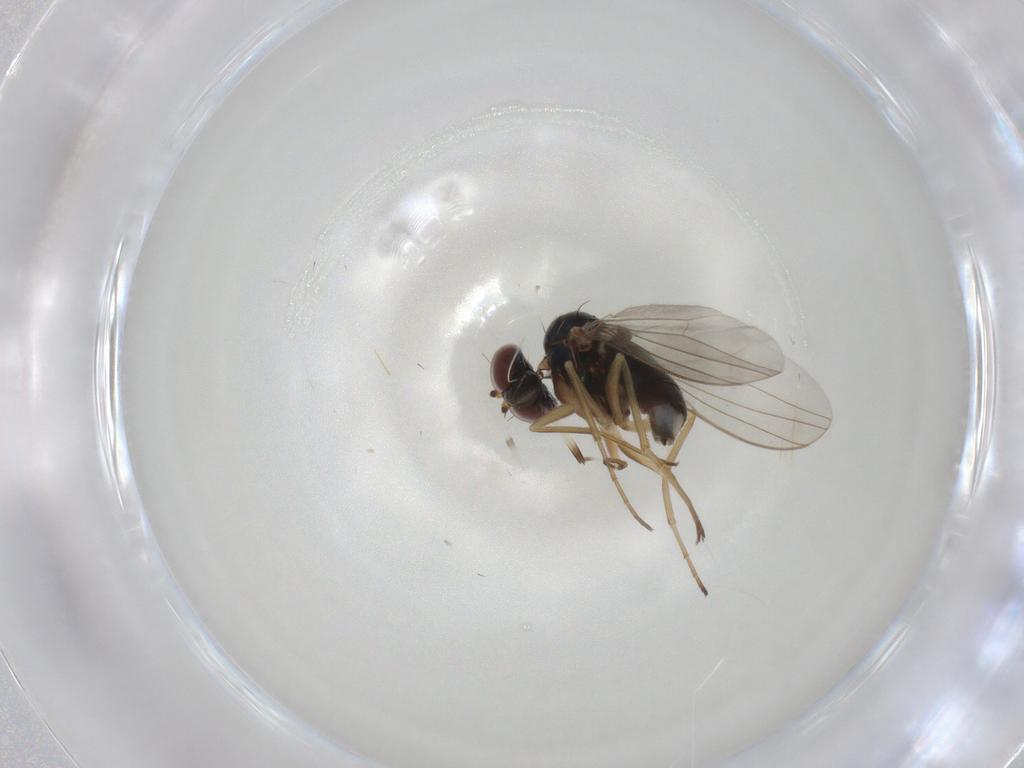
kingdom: Animalia
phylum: Arthropoda
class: Insecta
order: Diptera
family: Dolichopodidae
